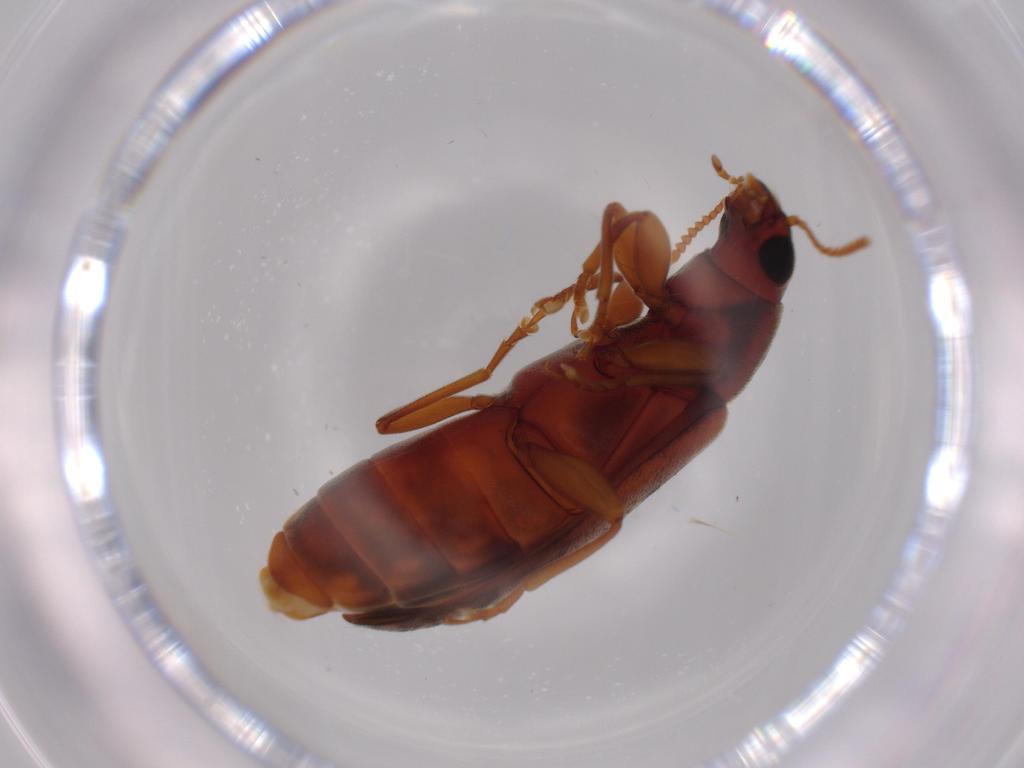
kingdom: Animalia
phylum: Arthropoda
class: Insecta
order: Coleoptera
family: Mycteridae
